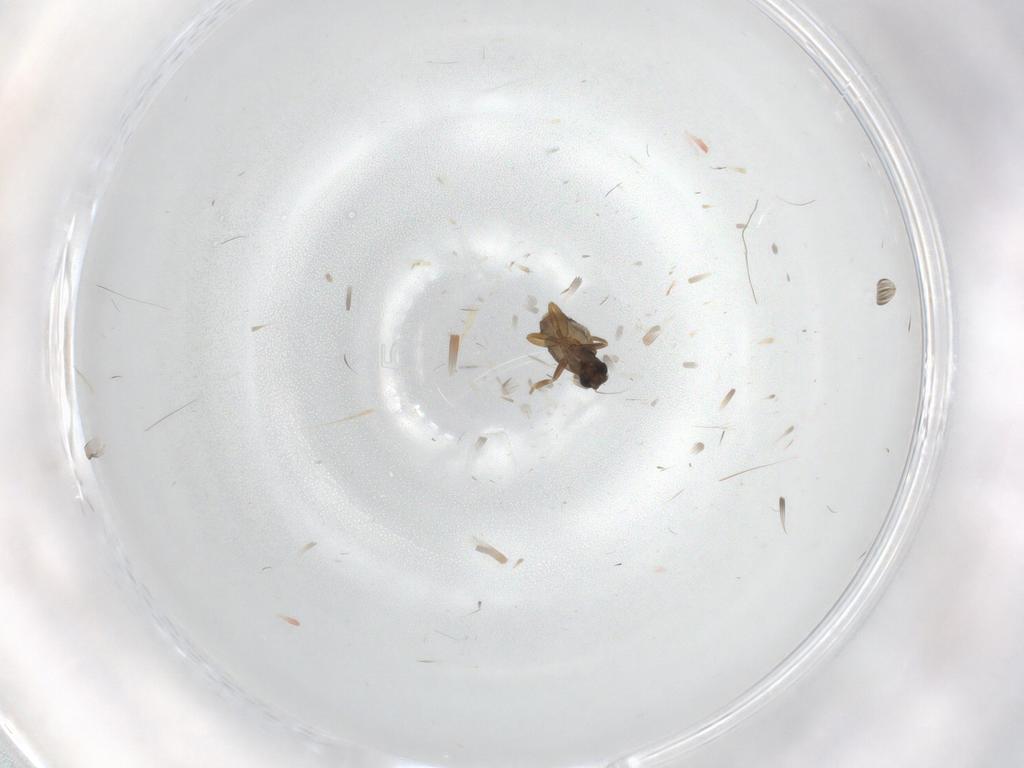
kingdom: Animalia
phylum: Arthropoda
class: Insecta
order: Diptera
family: Phoridae
